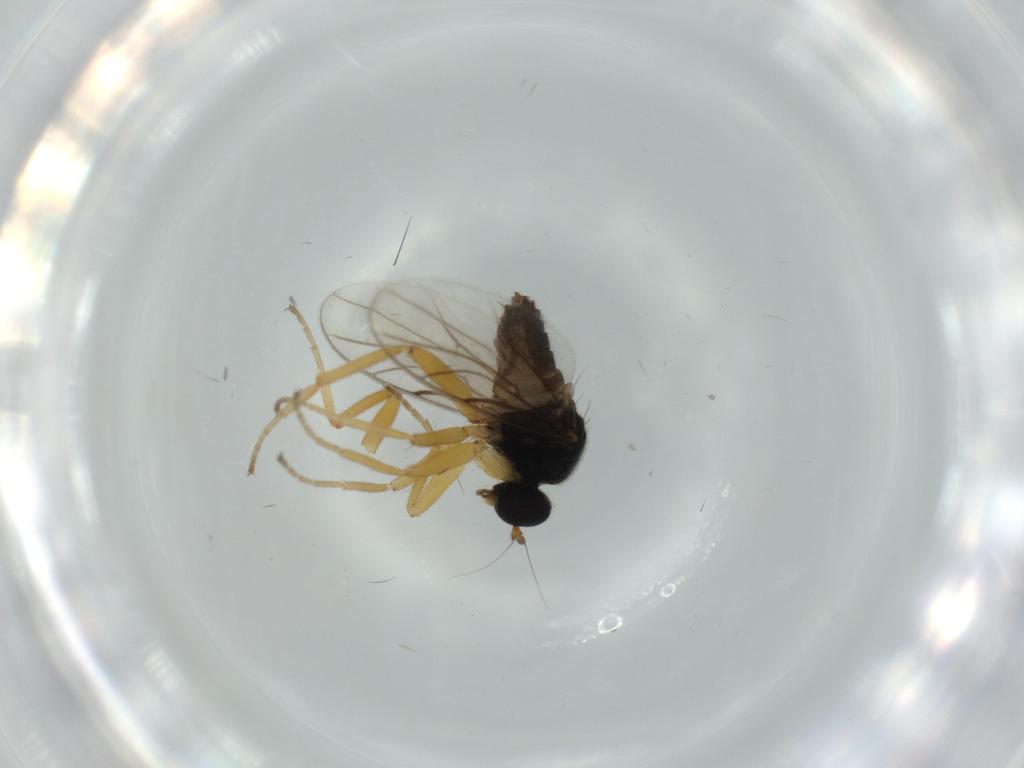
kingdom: Animalia
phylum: Arthropoda
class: Insecta
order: Diptera
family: Hybotidae
